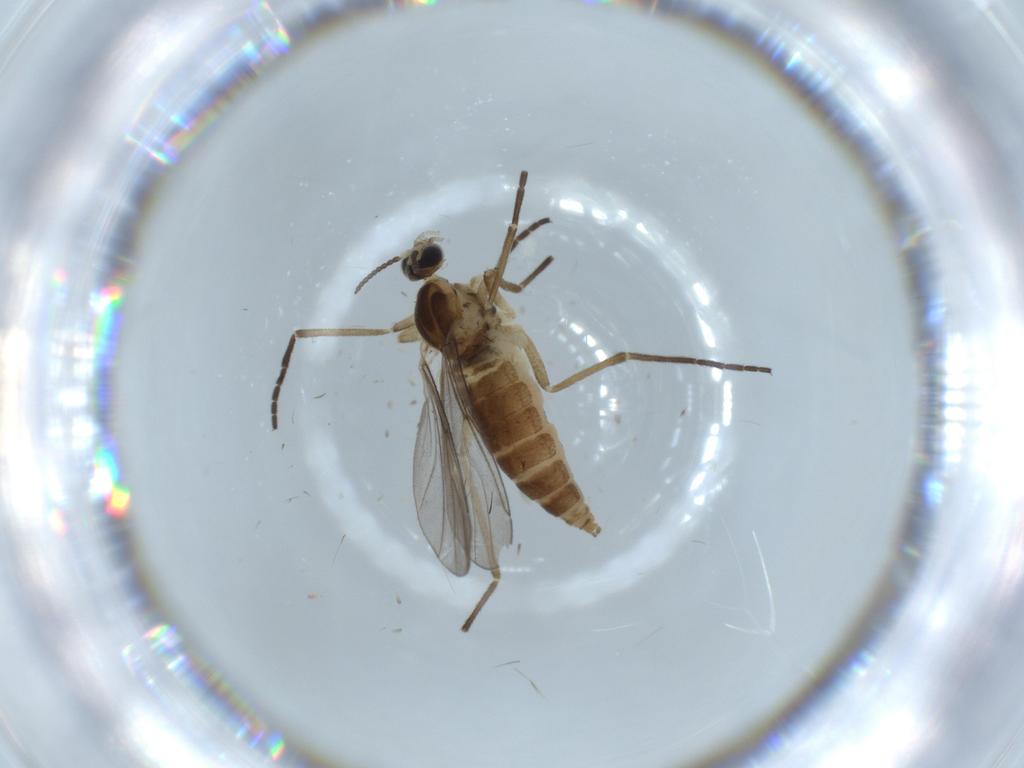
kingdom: Animalia
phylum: Arthropoda
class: Insecta
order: Diptera
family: Cecidomyiidae
